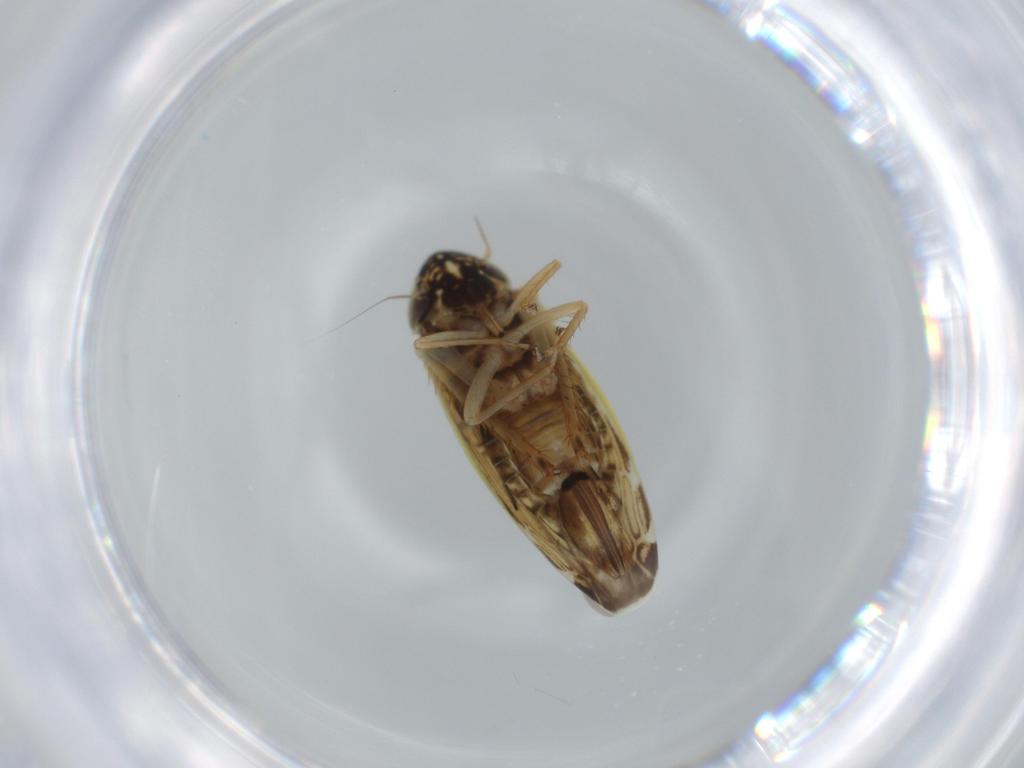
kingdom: Animalia
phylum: Arthropoda
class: Insecta
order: Hemiptera
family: Cicadellidae
